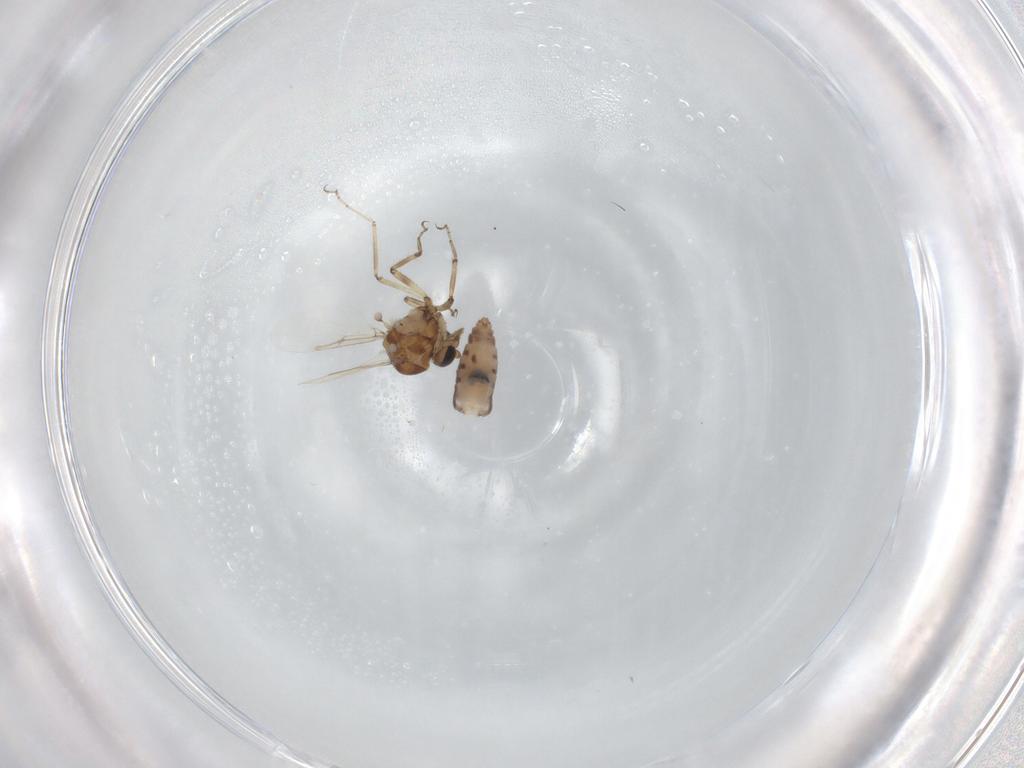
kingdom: Animalia
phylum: Arthropoda
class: Insecta
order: Diptera
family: Ceratopogonidae
